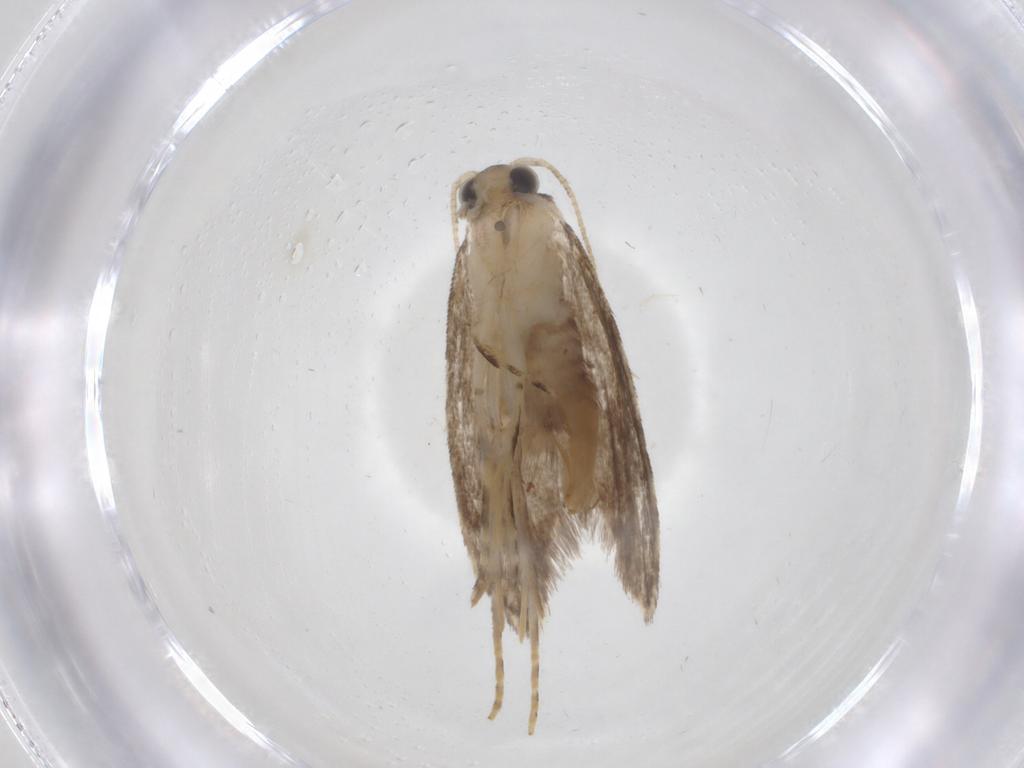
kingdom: Animalia
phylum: Arthropoda
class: Insecta
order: Lepidoptera
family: Tineidae
